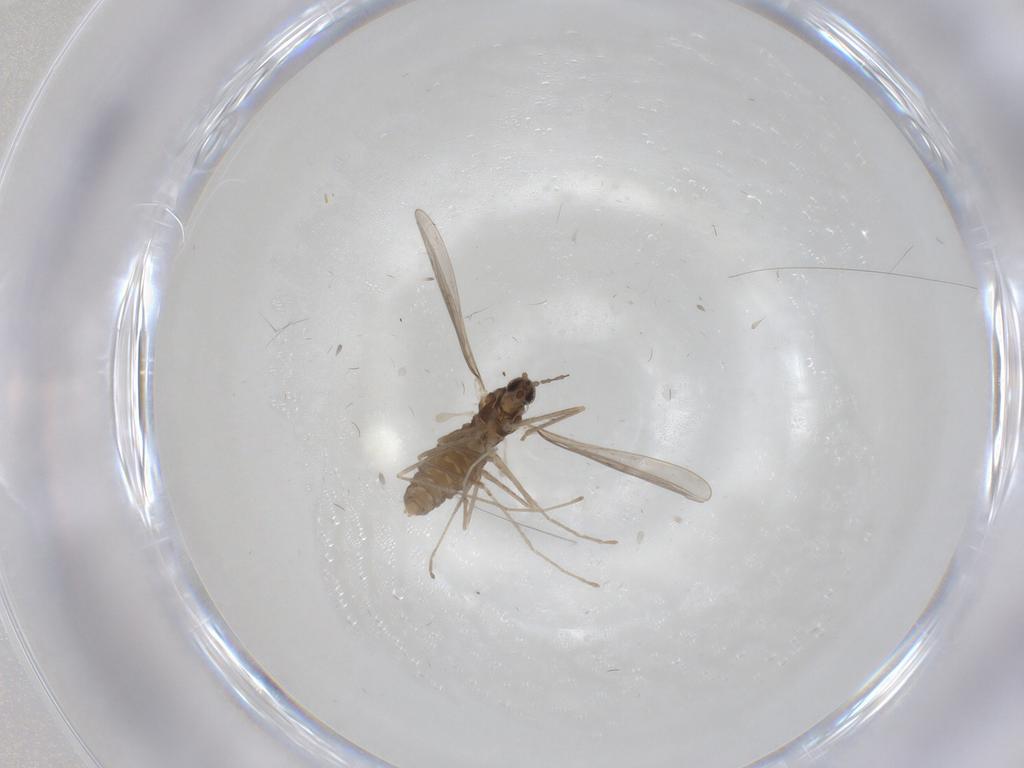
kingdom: Animalia
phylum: Arthropoda
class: Insecta
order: Diptera
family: Cecidomyiidae
